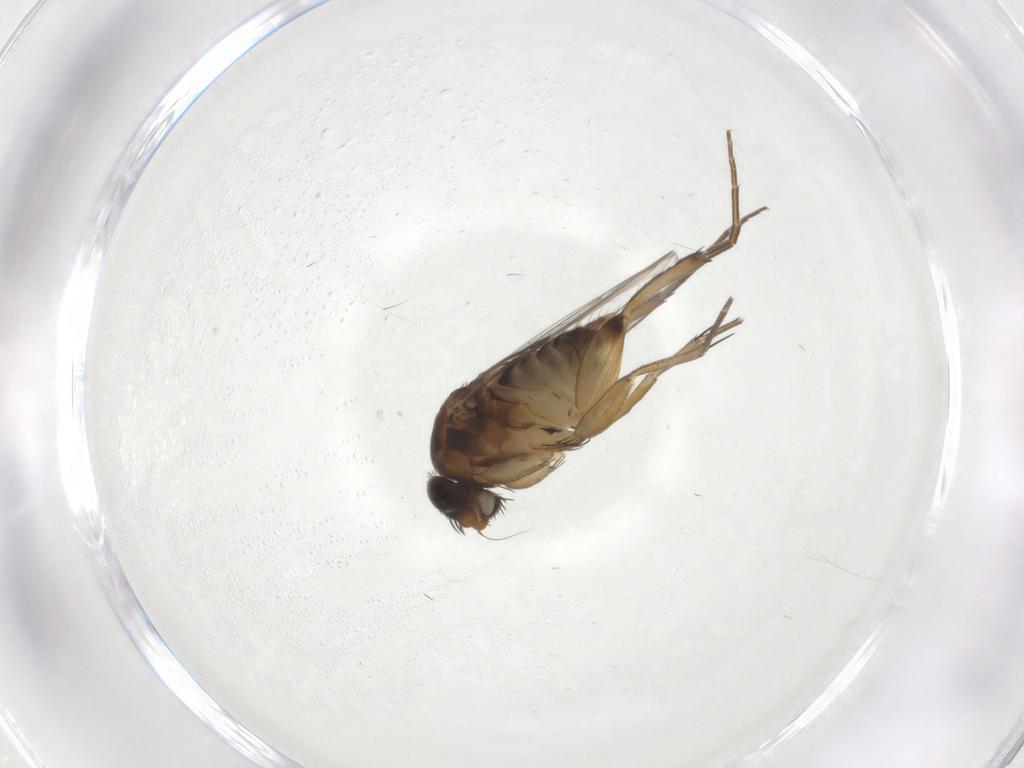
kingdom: Animalia
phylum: Arthropoda
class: Insecta
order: Diptera
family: Phoridae
